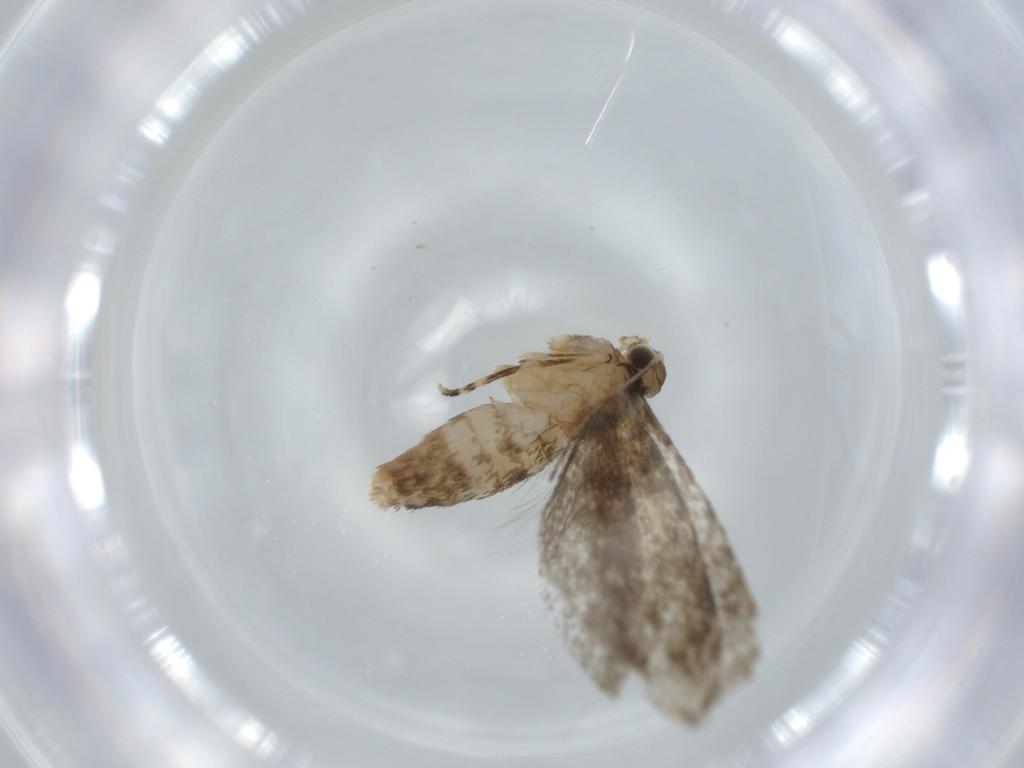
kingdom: Animalia
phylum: Arthropoda
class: Insecta
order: Lepidoptera
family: Tineidae
